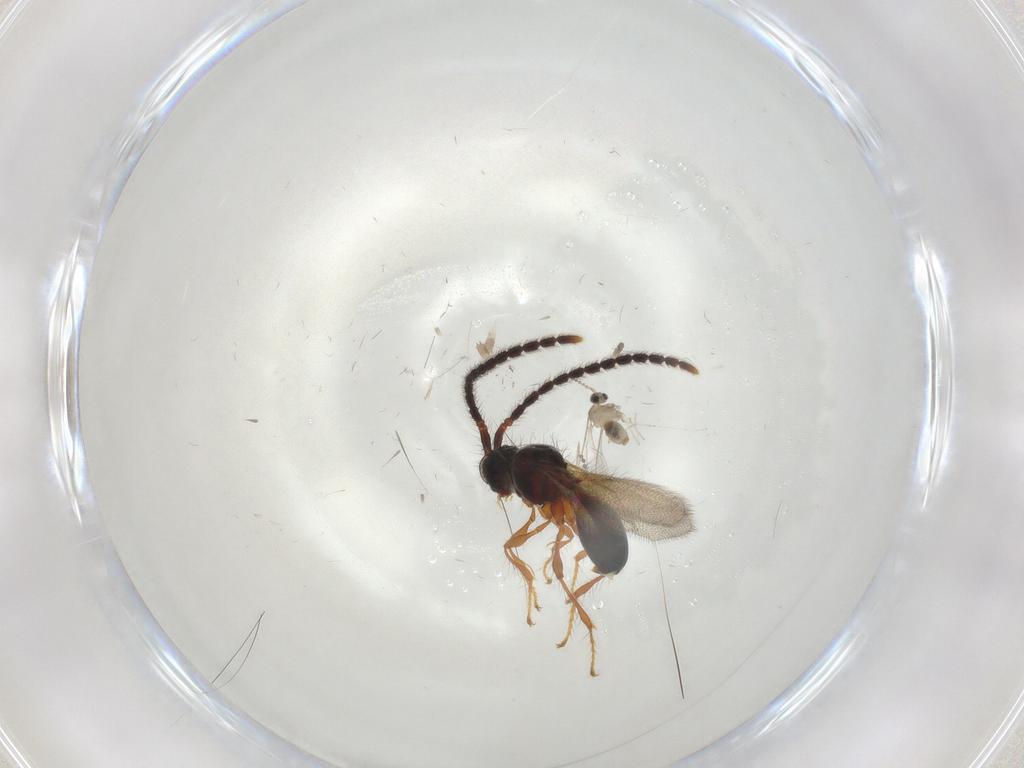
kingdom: Animalia
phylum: Arthropoda
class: Insecta
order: Diptera
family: Cecidomyiidae
